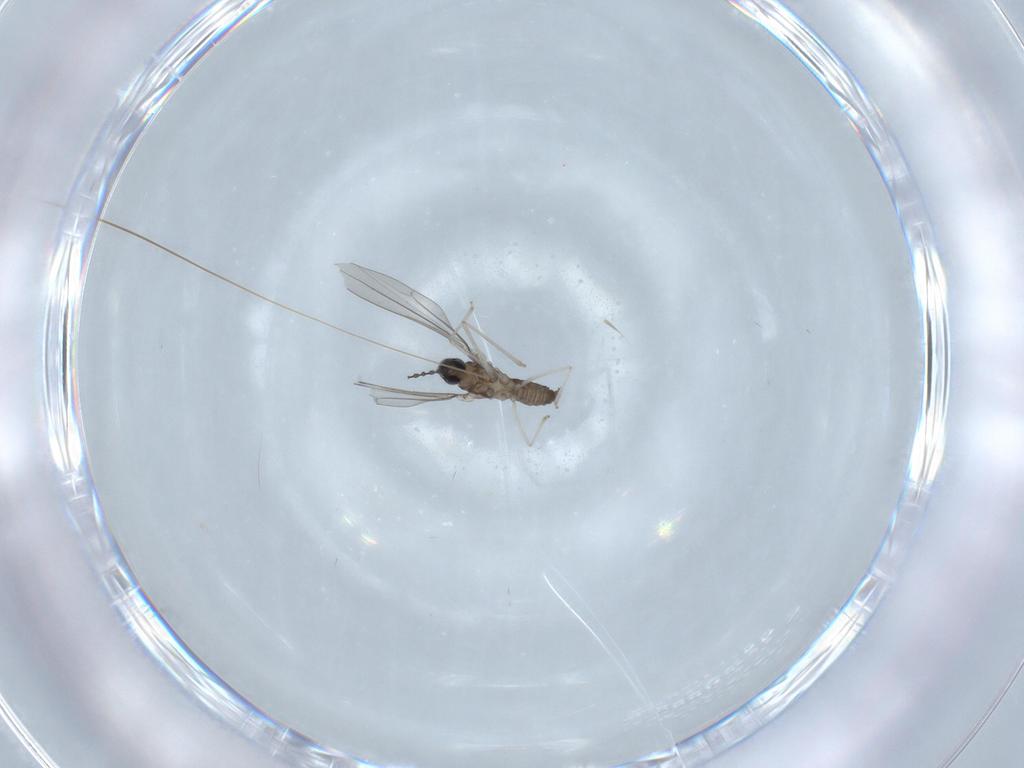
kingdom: Animalia
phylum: Arthropoda
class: Insecta
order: Diptera
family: Cecidomyiidae
